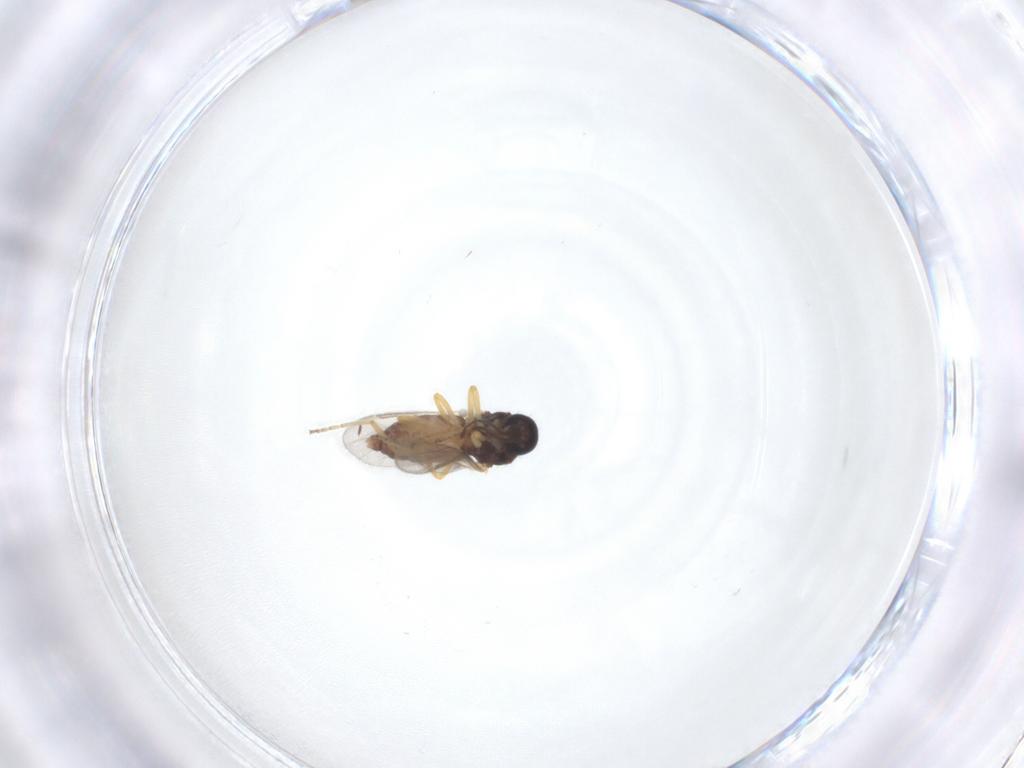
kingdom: Animalia
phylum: Arthropoda
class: Insecta
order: Diptera
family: Ceratopogonidae
